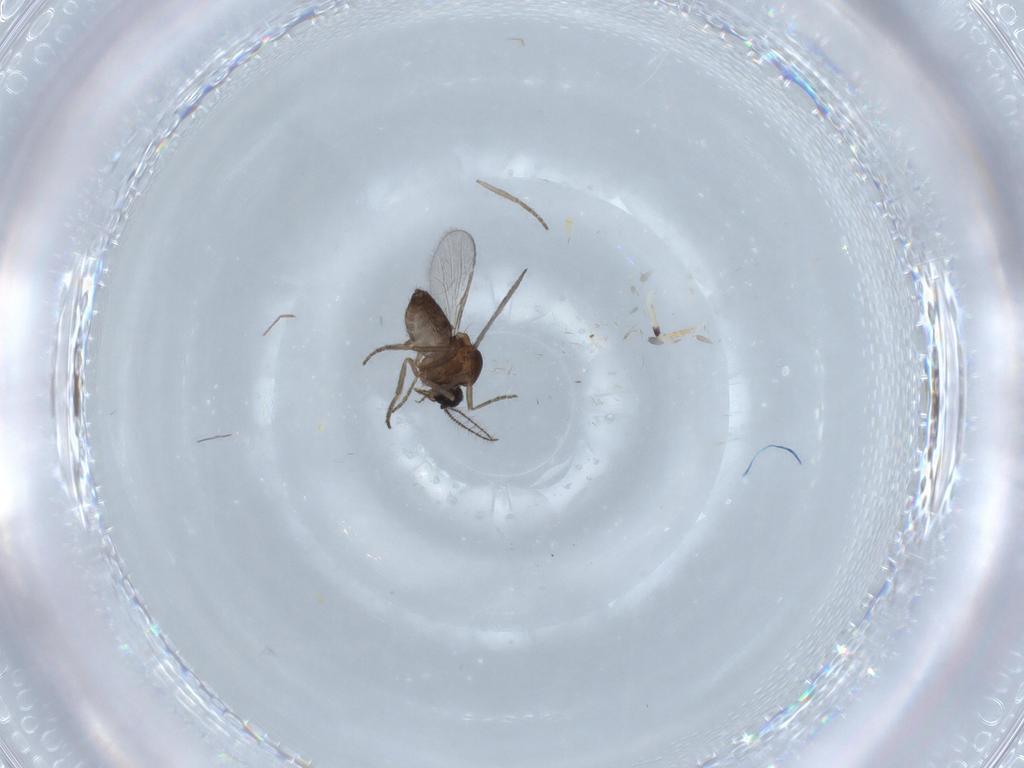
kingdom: Animalia
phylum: Arthropoda
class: Insecta
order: Diptera
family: Sciaridae
